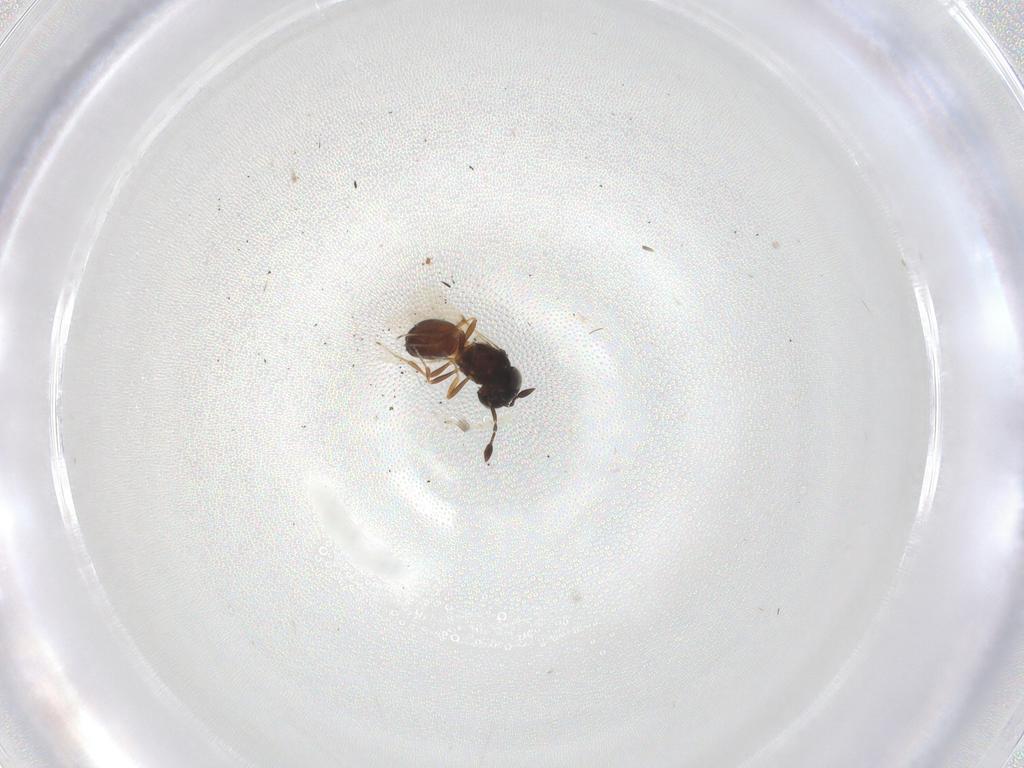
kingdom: Animalia
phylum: Arthropoda
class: Insecta
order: Hymenoptera
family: Scelionidae
